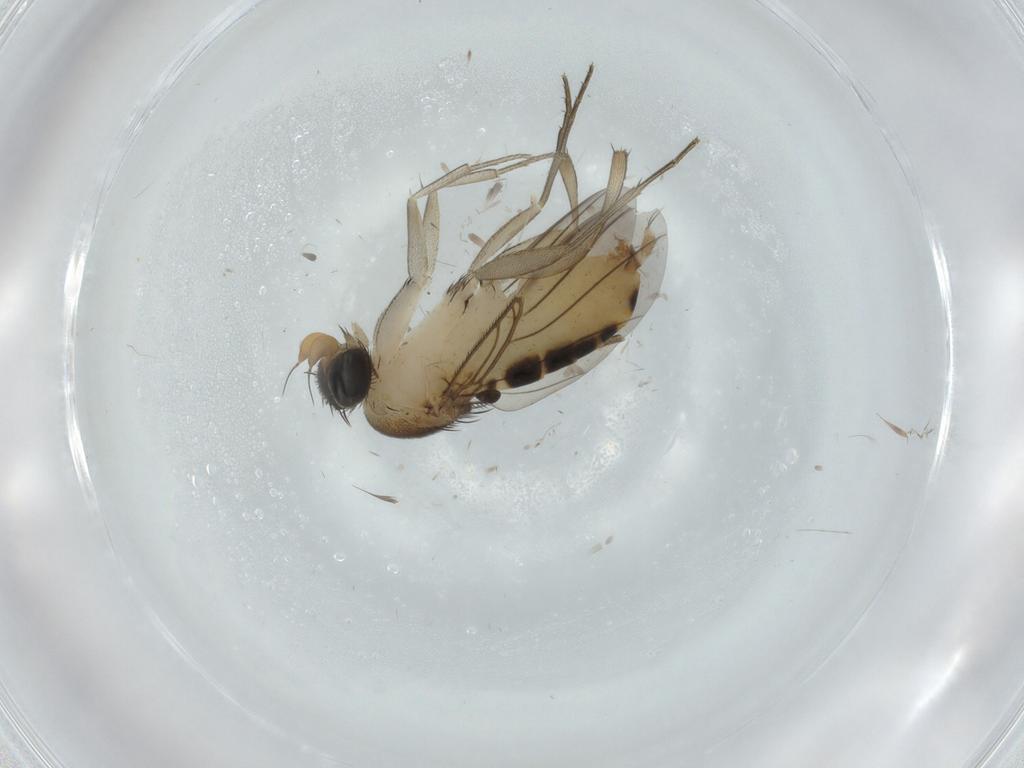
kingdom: Animalia
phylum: Arthropoda
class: Insecta
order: Diptera
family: Phoridae
